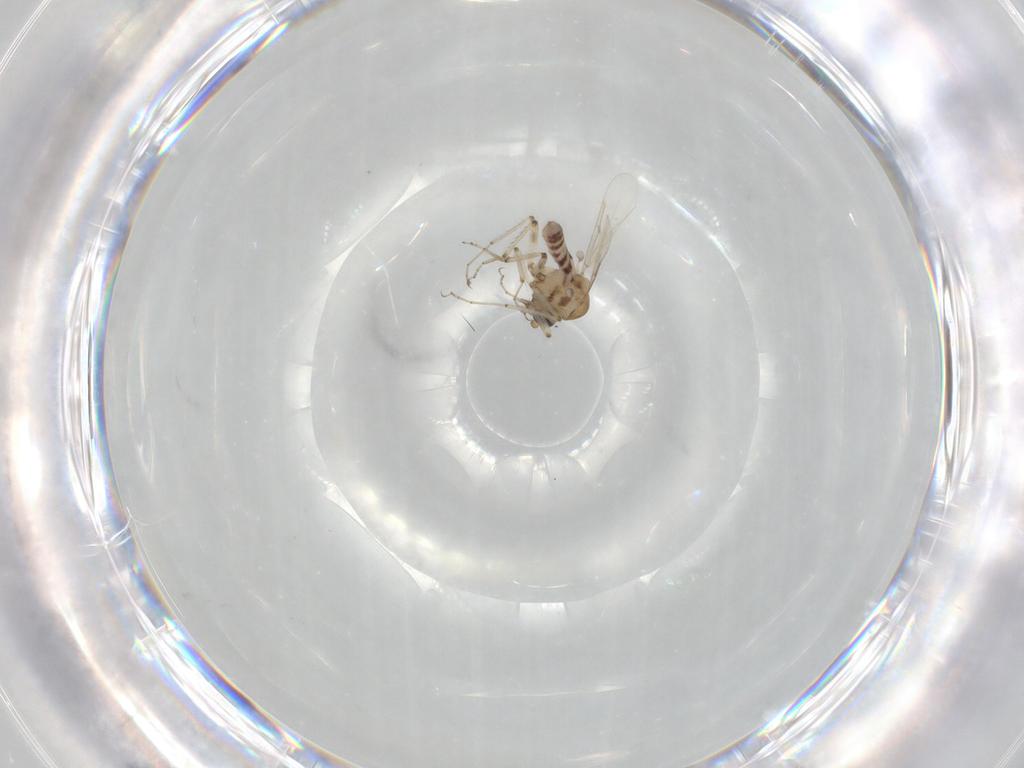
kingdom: Animalia
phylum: Arthropoda
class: Insecta
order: Diptera
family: Ceratopogonidae
